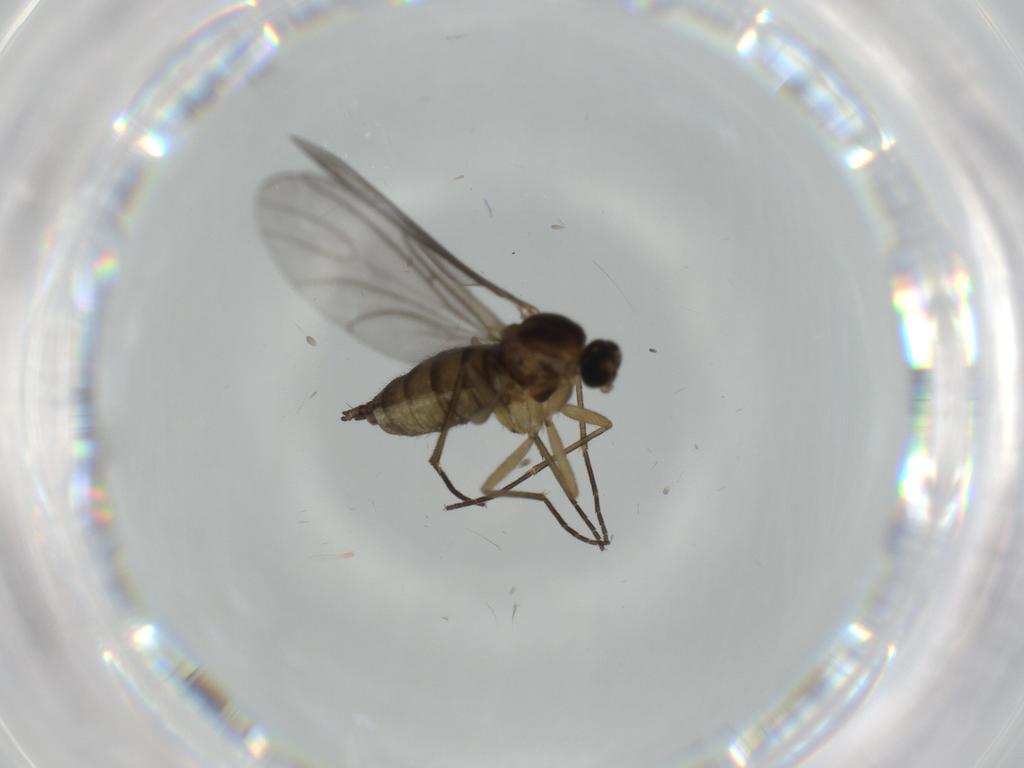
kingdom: Animalia
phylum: Arthropoda
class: Insecta
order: Diptera
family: Sciaridae
